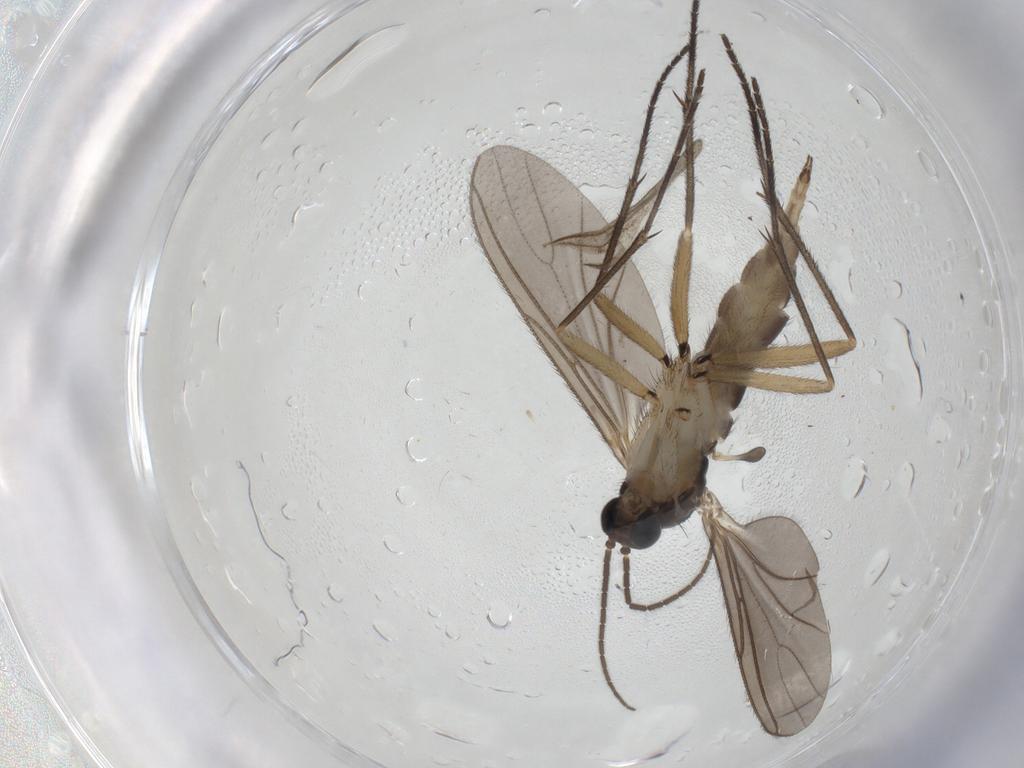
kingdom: Animalia
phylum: Arthropoda
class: Insecta
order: Diptera
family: Sciaridae
